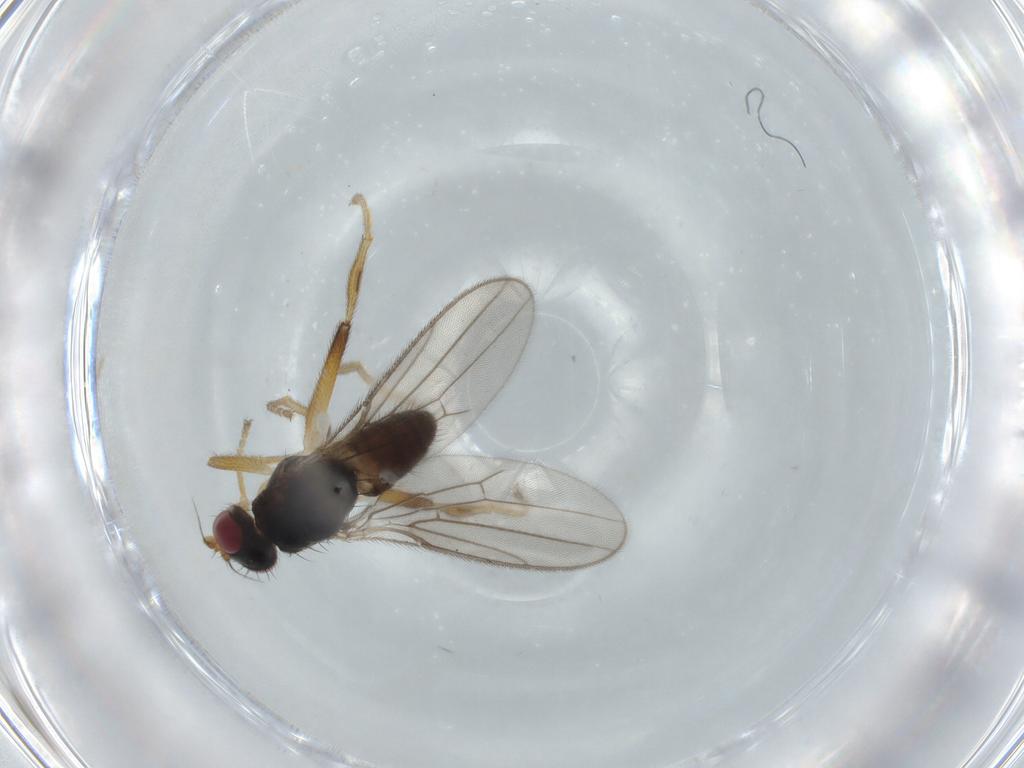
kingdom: Animalia
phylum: Arthropoda
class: Insecta
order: Diptera
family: Chloropidae
